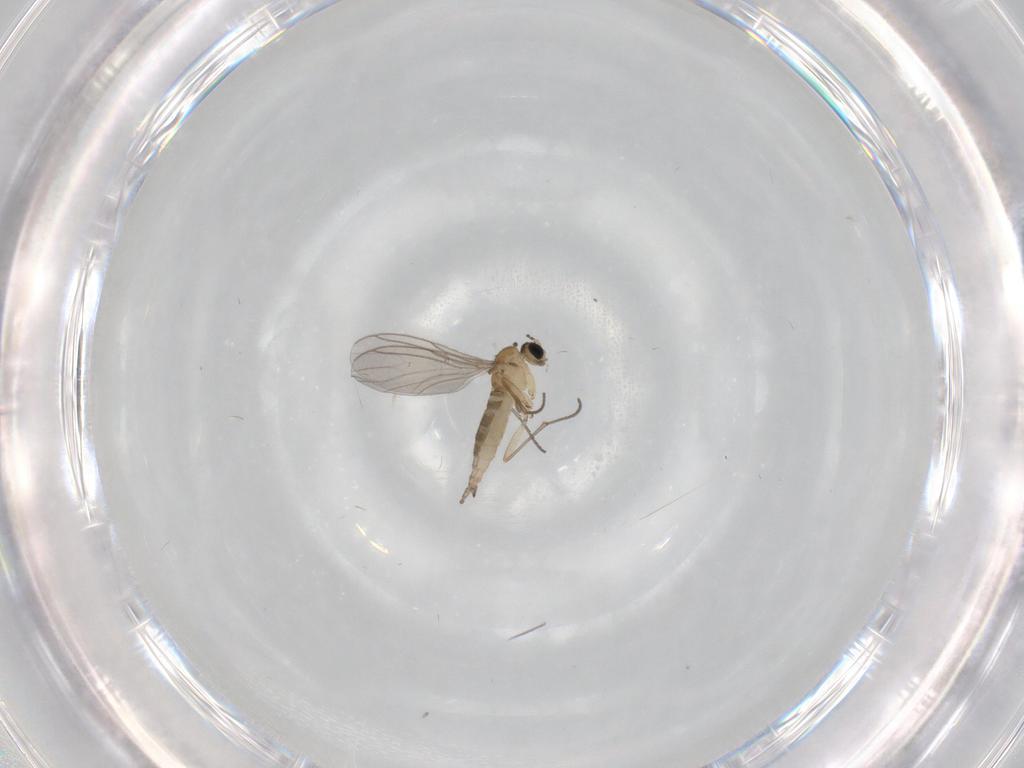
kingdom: Animalia
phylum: Arthropoda
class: Insecta
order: Diptera
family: Sciaridae
